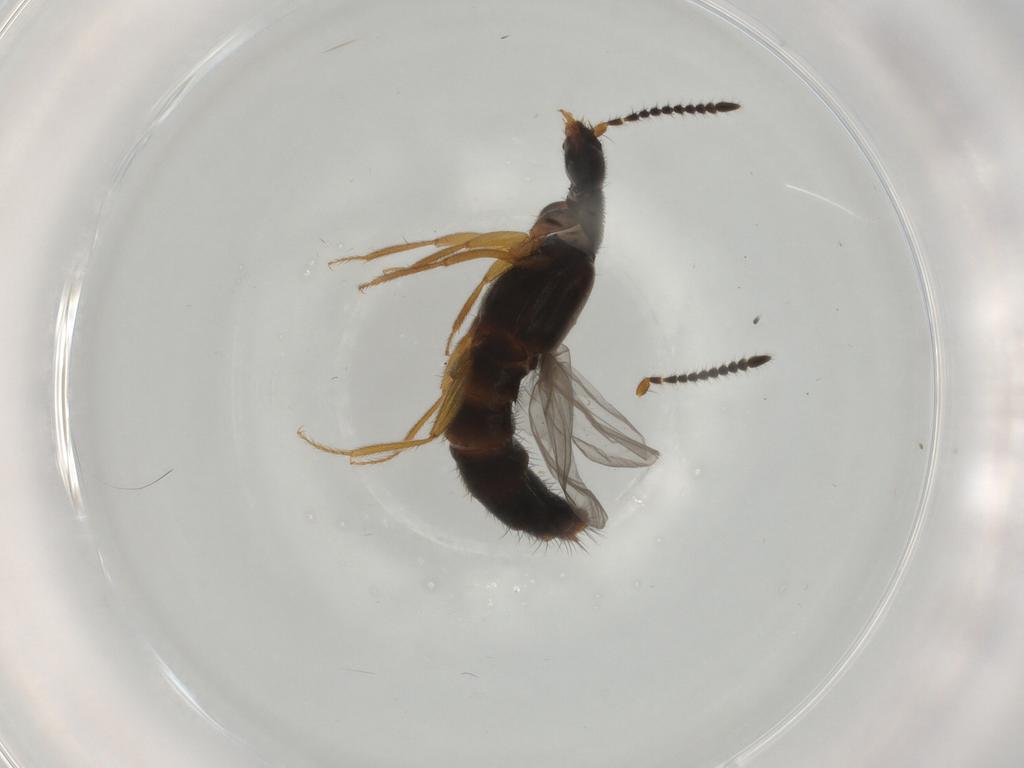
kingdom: Animalia
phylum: Arthropoda
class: Insecta
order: Coleoptera
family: Staphylinidae
